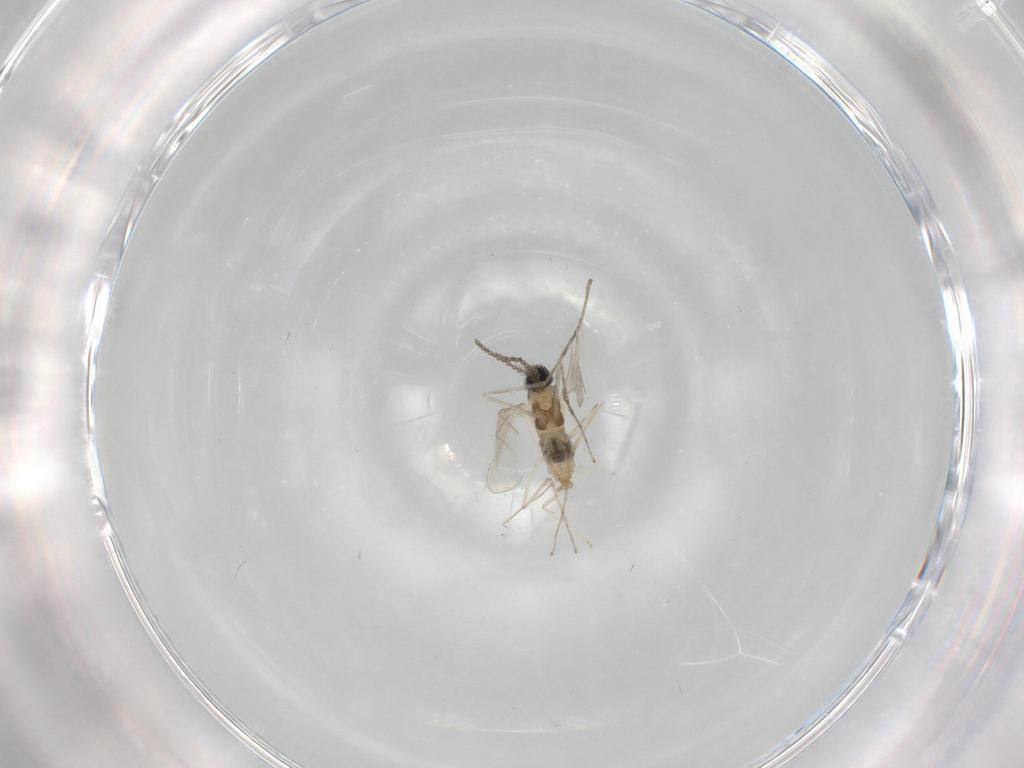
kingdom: Animalia
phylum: Arthropoda
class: Insecta
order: Diptera
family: Cecidomyiidae
